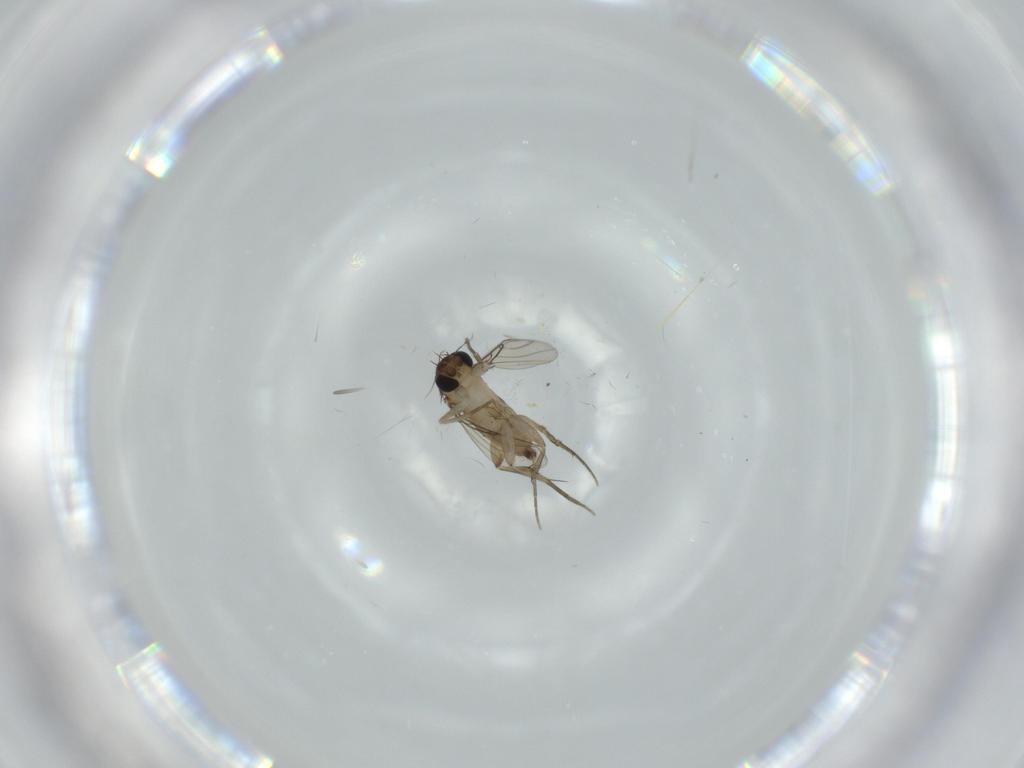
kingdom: Animalia
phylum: Arthropoda
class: Insecta
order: Diptera
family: Phoridae
